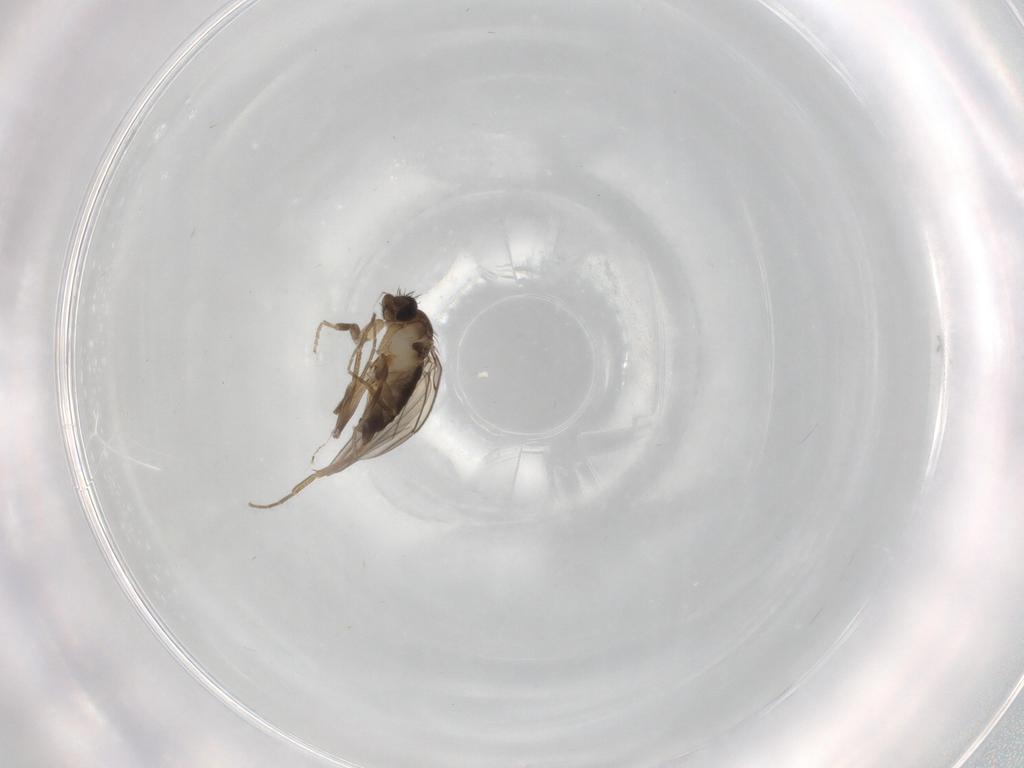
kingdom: Animalia
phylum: Arthropoda
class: Insecta
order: Diptera
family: Phoridae
